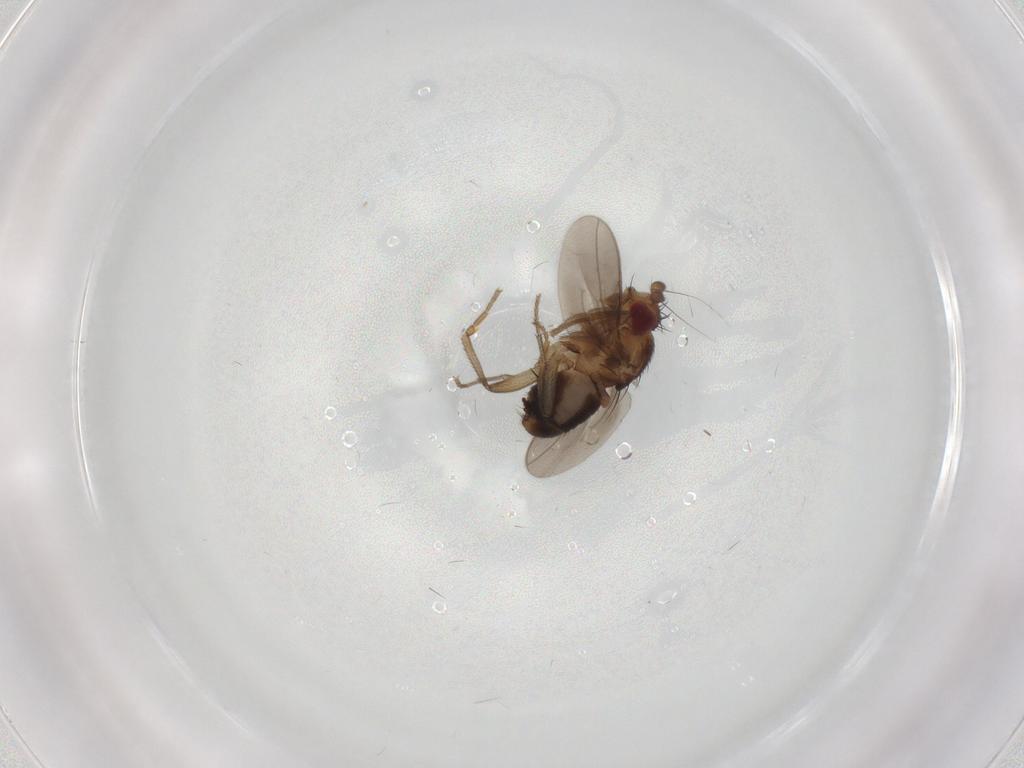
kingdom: Animalia
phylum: Arthropoda
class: Insecta
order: Diptera
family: Sphaeroceridae
